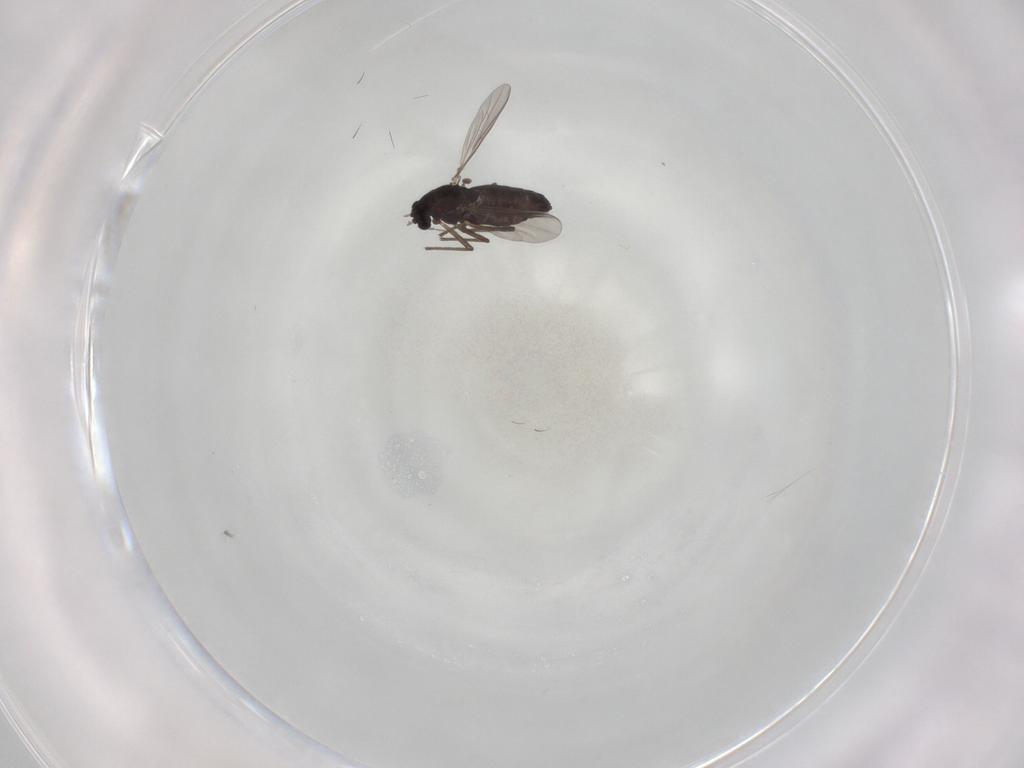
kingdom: Animalia
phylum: Arthropoda
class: Insecta
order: Diptera
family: Chironomidae
